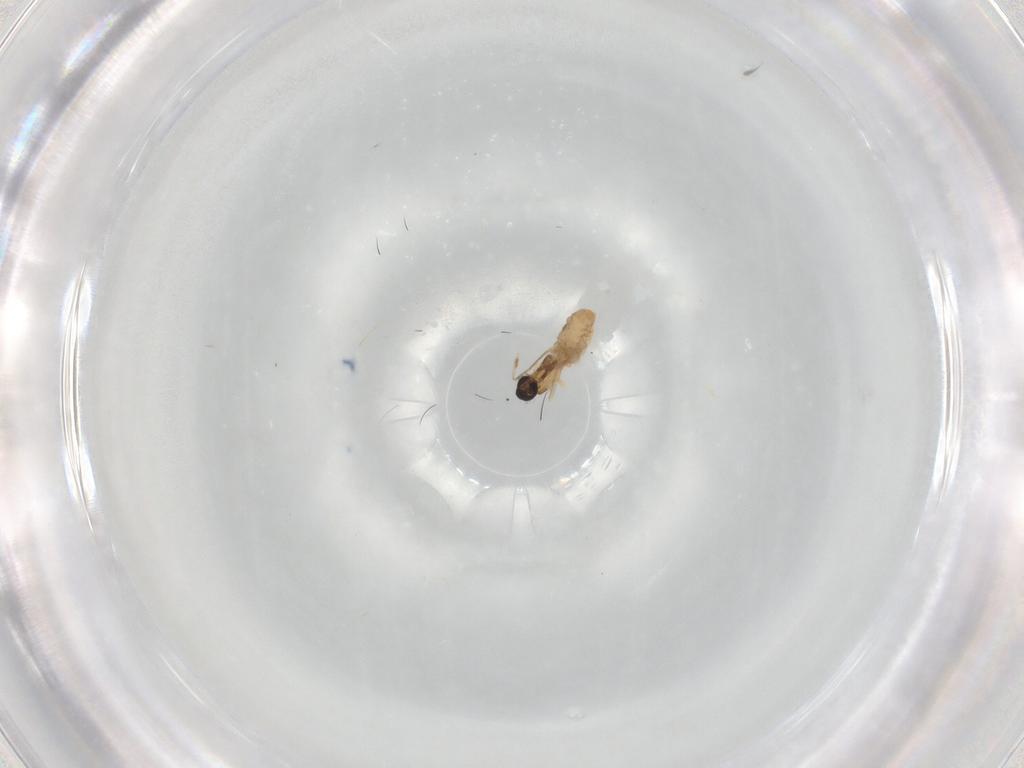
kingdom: Animalia
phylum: Arthropoda
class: Insecta
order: Diptera
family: Cecidomyiidae
